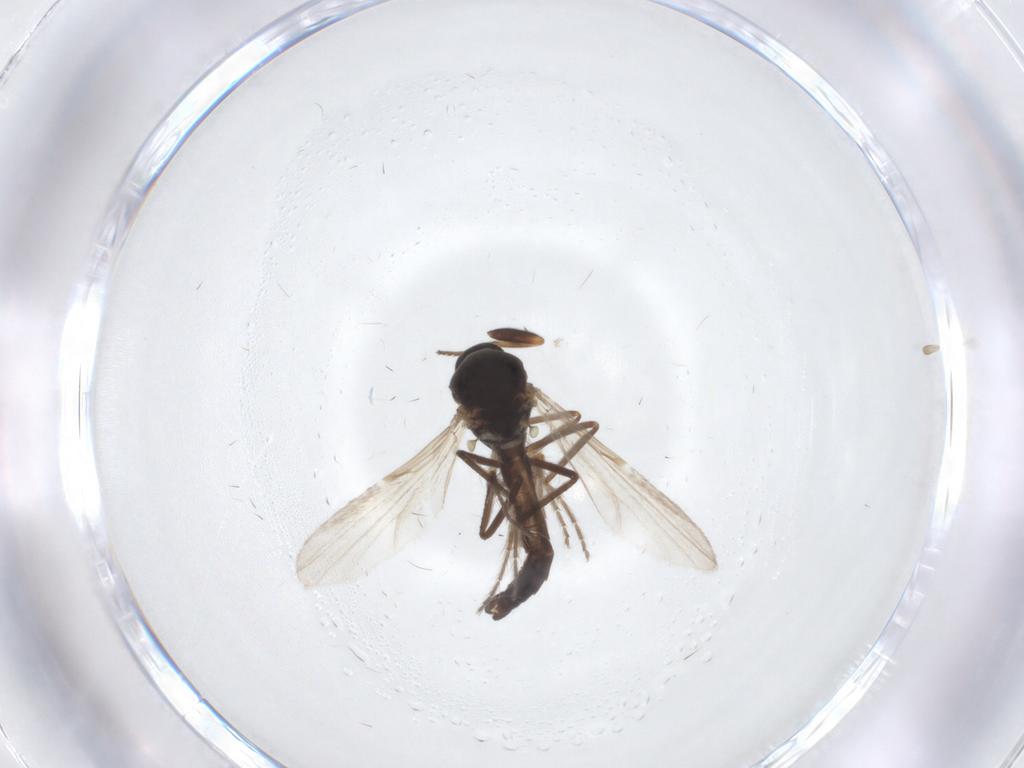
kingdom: Animalia
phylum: Arthropoda
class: Insecta
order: Diptera
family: Ceratopogonidae
